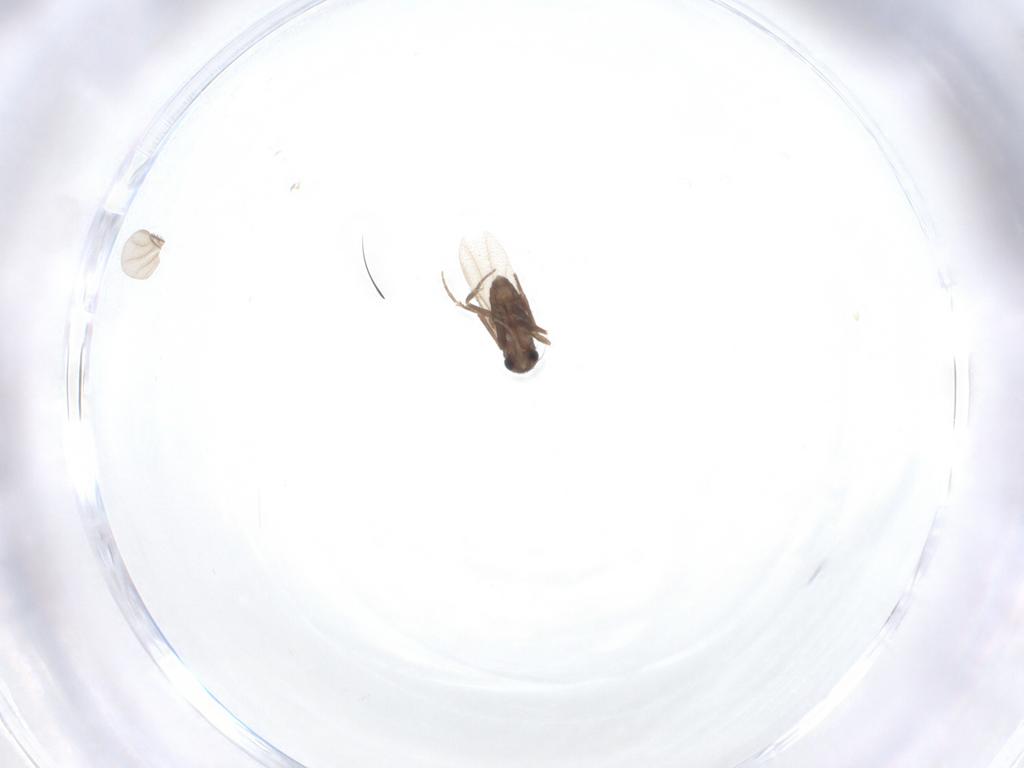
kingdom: Animalia
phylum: Arthropoda
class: Insecta
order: Diptera
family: Phoridae
